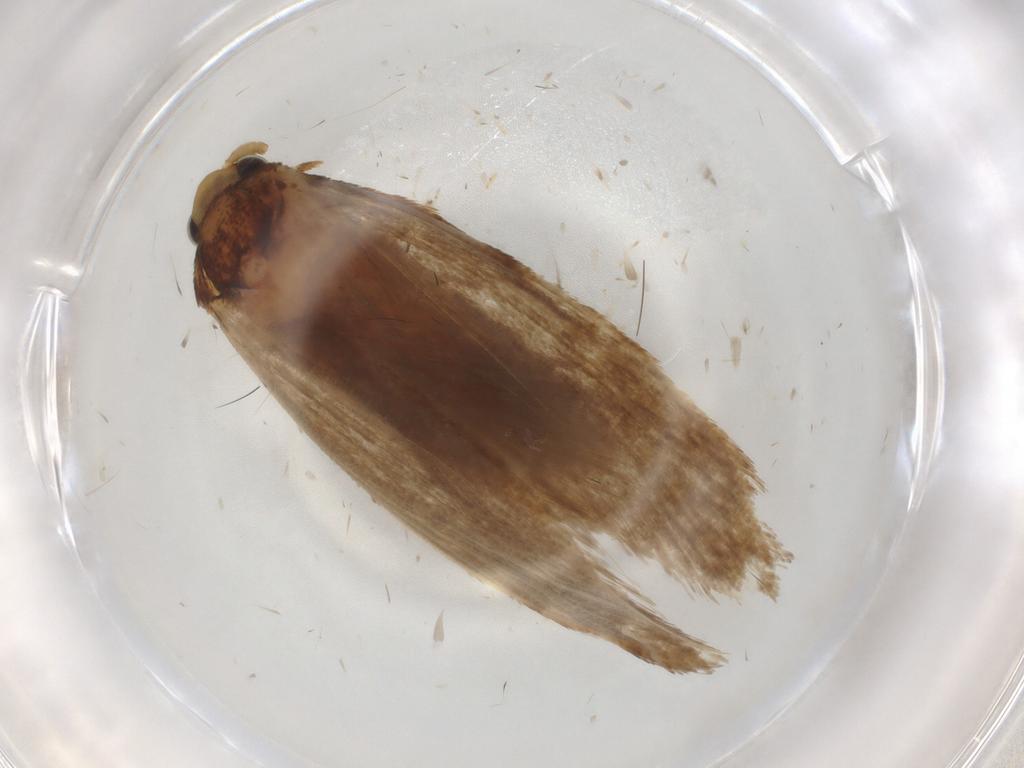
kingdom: Animalia
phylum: Arthropoda
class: Insecta
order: Lepidoptera
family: Tineidae
